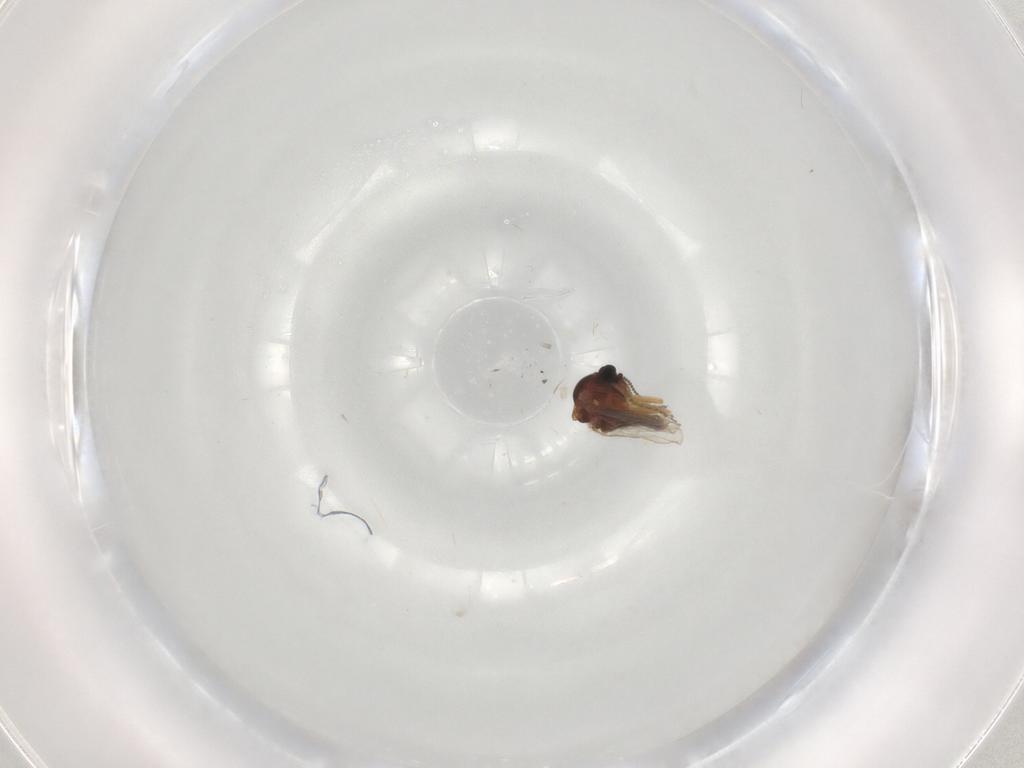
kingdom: Animalia
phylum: Arthropoda
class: Insecta
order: Diptera
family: Ceratopogonidae
